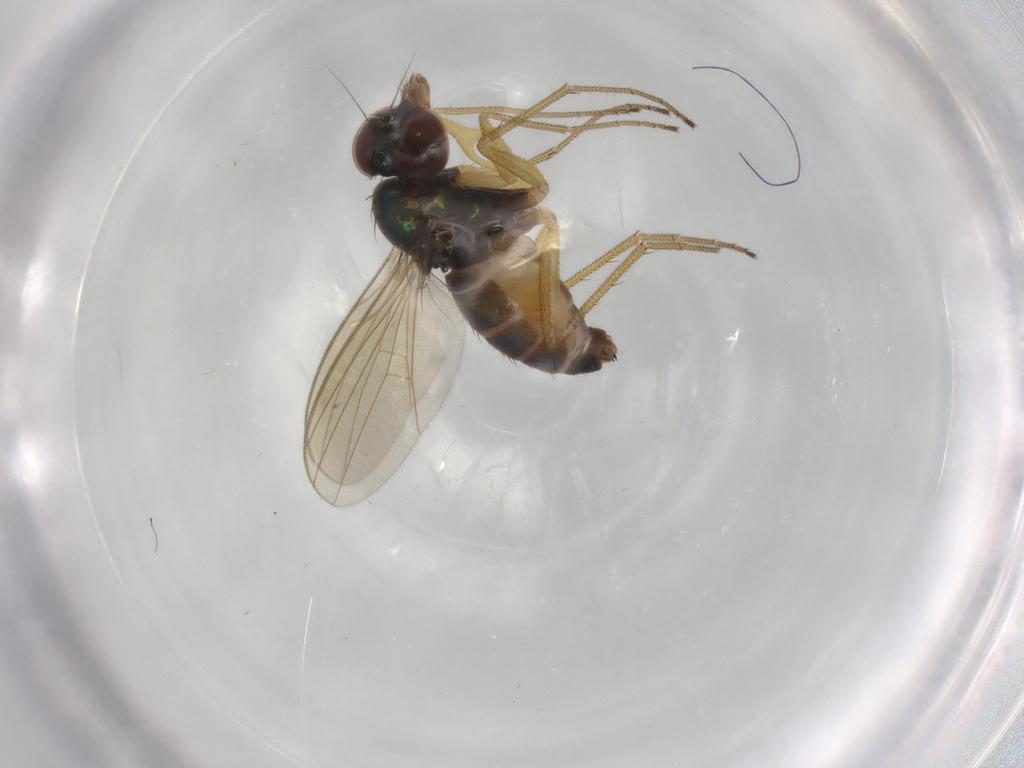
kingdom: Animalia
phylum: Arthropoda
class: Insecta
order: Diptera
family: Dolichopodidae
